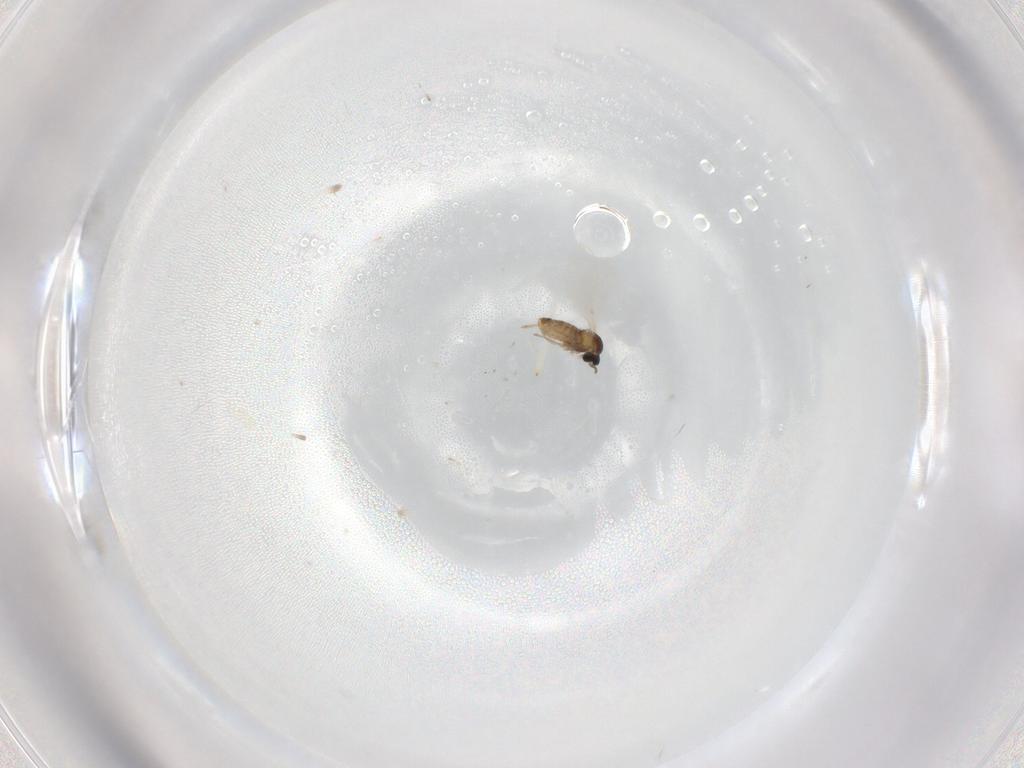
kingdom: Animalia
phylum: Arthropoda
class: Insecta
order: Diptera
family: Cecidomyiidae
